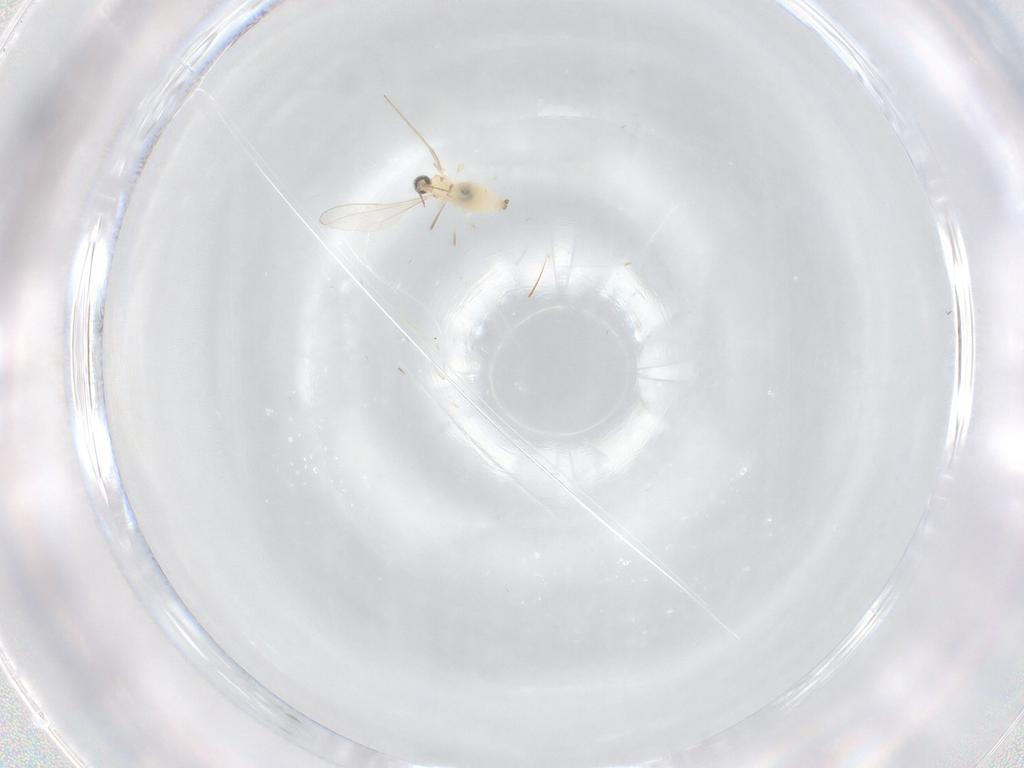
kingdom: Animalia
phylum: Arthropoda
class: Insecta
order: Diptera
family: Cecidomyiidae
